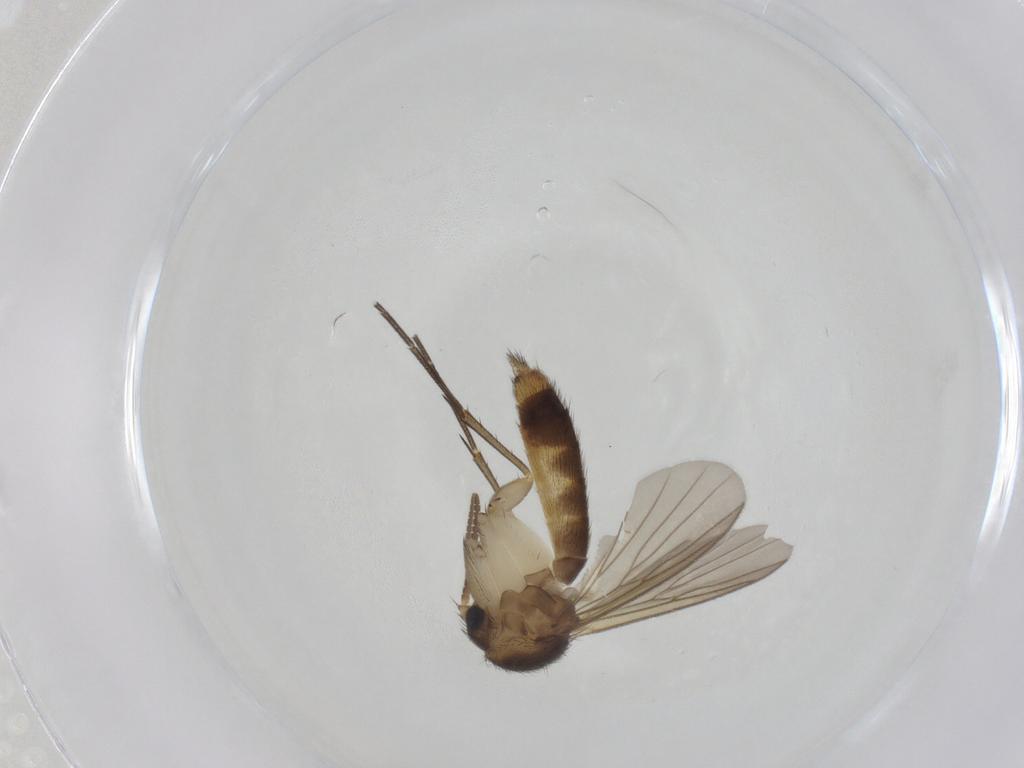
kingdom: Animalia
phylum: Arthropoda
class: Insecta
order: Diptera
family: Mycetophilidae
